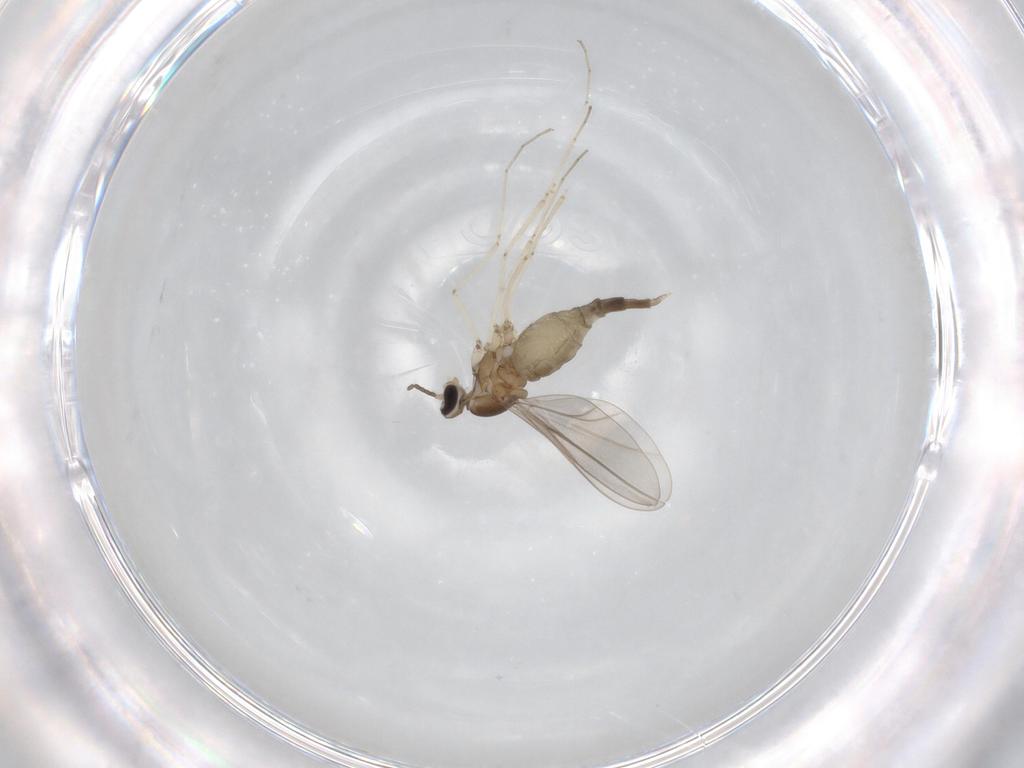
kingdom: Animalia
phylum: Arthropoda
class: Insecta
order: Diptera
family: Cecidomyiidae
